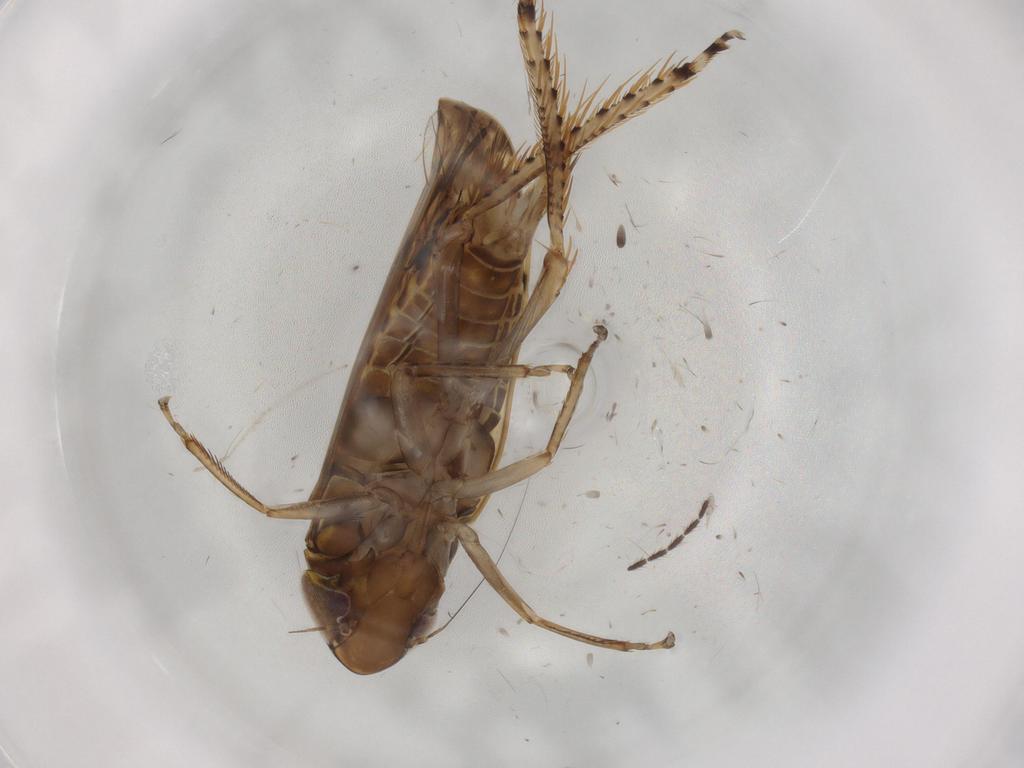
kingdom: Animalia
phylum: Arthropoda
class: Insecta
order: Hemiptera
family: Cicadellidae
